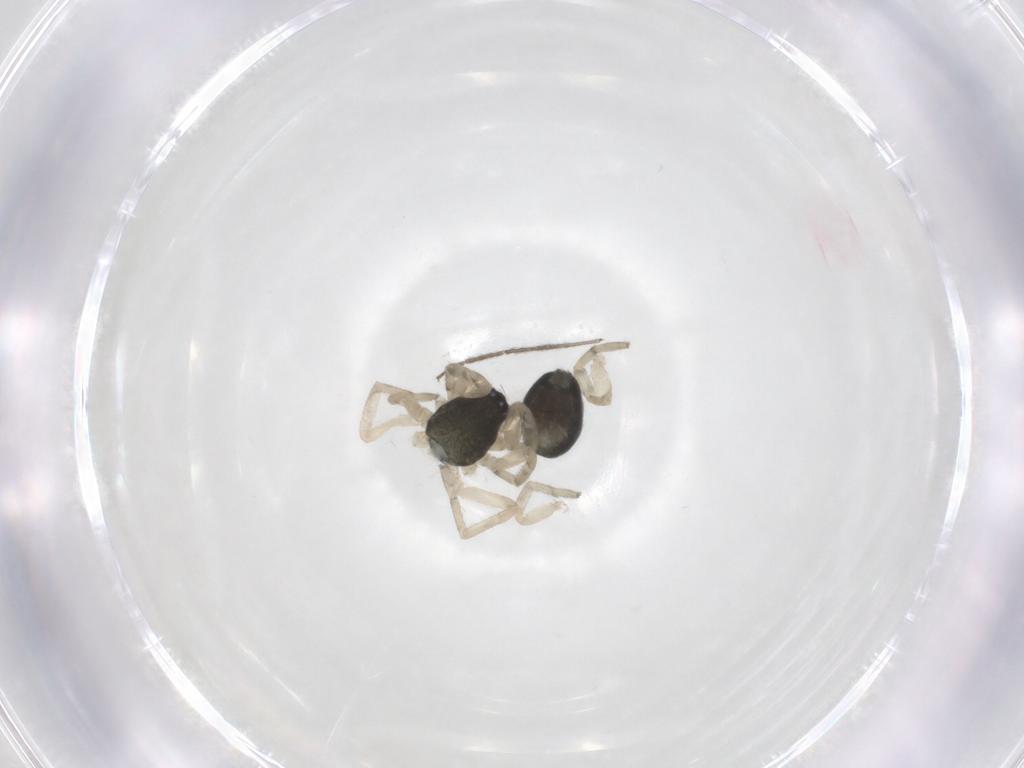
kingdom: Animalia
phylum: Arthropoda
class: Arachnida
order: Araneae
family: Trachelidae
